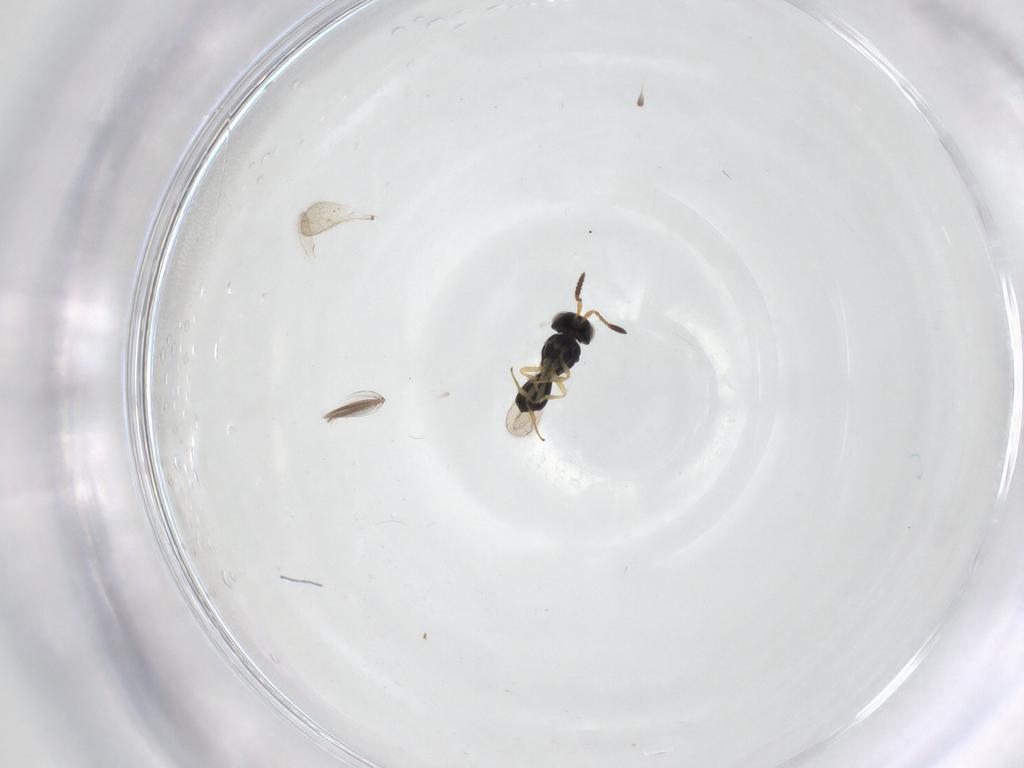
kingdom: Animalia
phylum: Arthropoda
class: Insecta
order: Hymenoptera
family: Scelionidae
